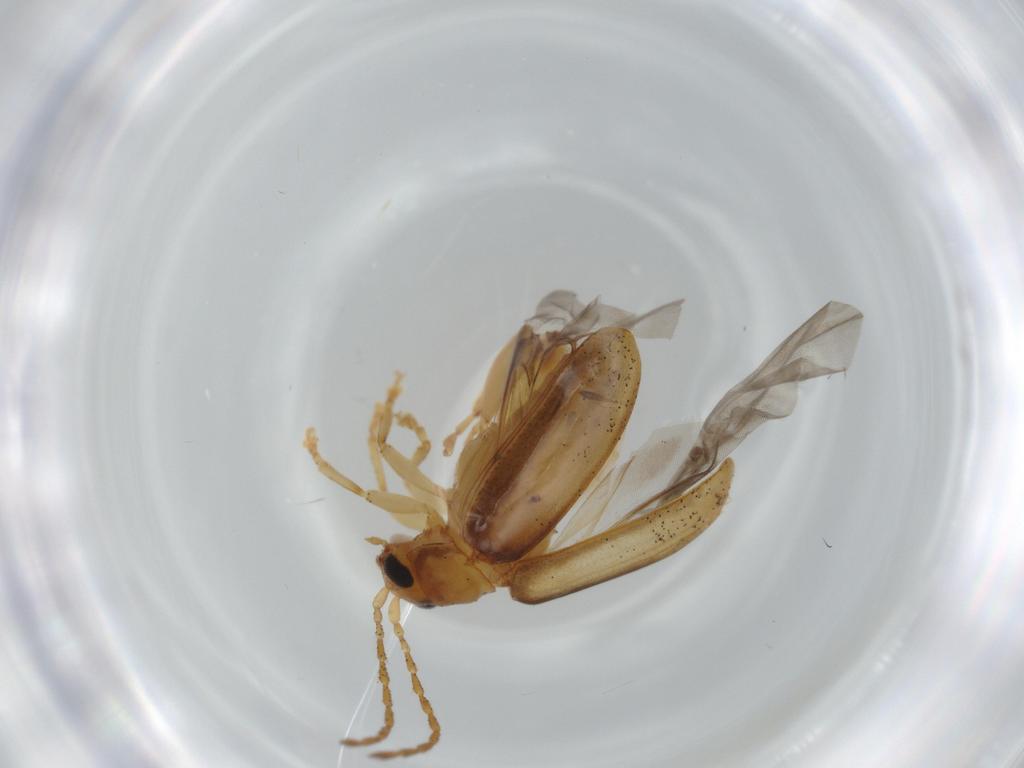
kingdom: Animalia
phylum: Arthropoda
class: Insecta
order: Coleoptera
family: Chrysomelidae
